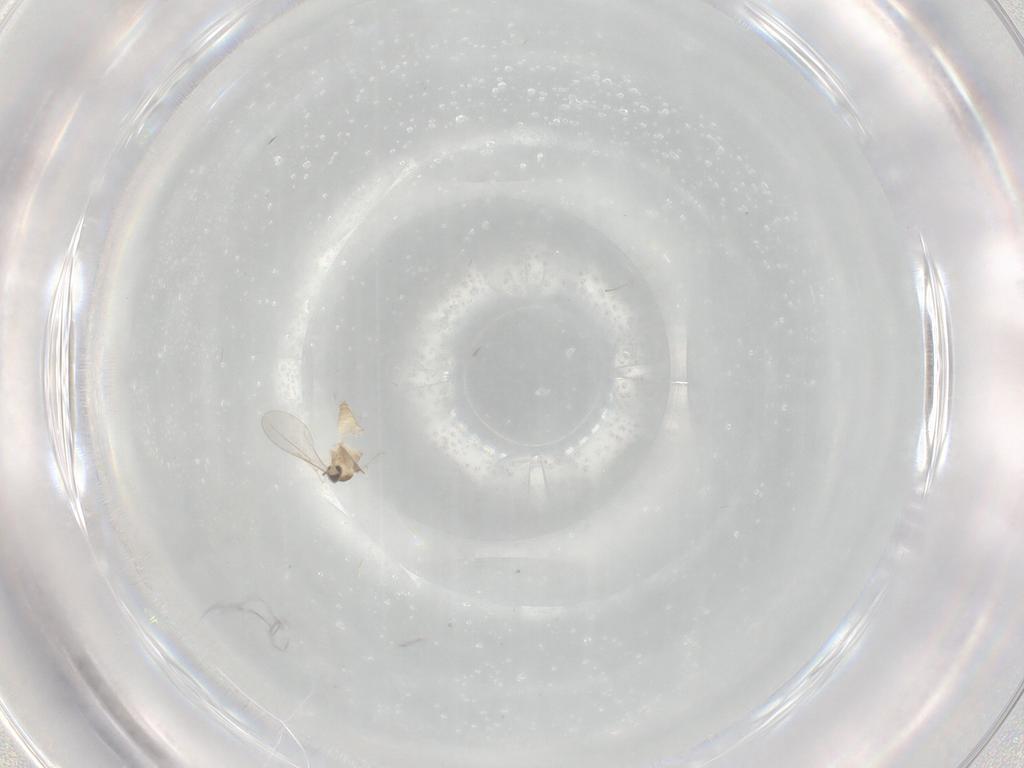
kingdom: Animalia
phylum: Arthropoda
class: Insecta
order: Diptera
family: Cecidomyiidae
